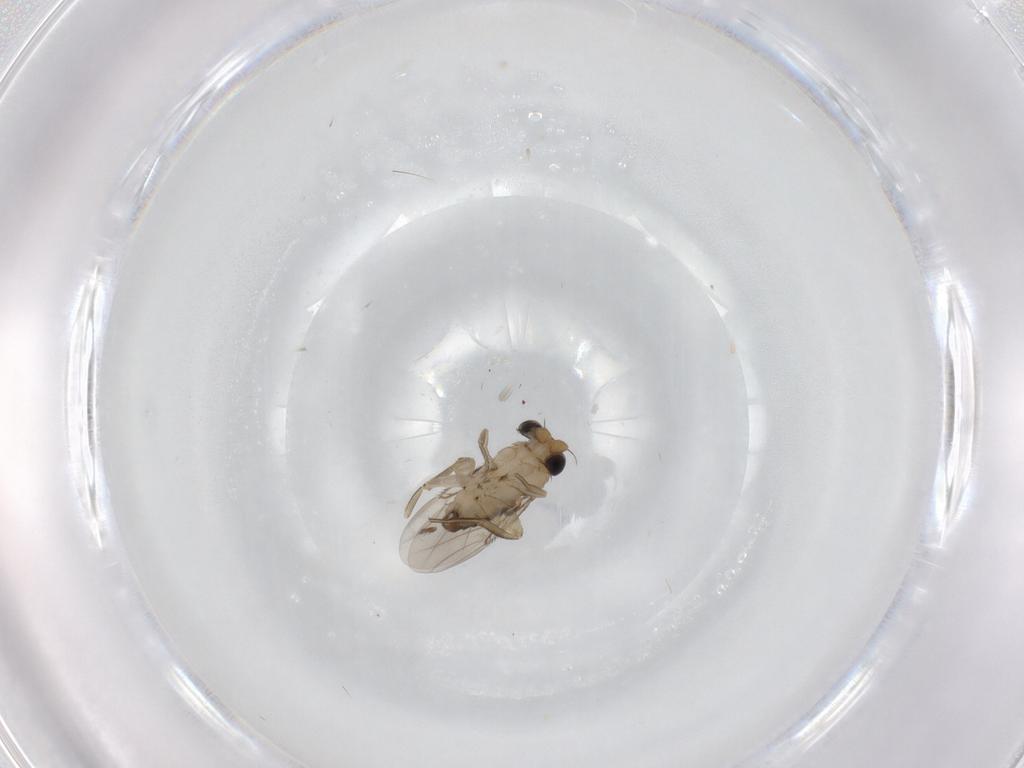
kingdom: Animalia
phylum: Arthropoda
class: Insecta
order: Diptera
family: Phoridae
